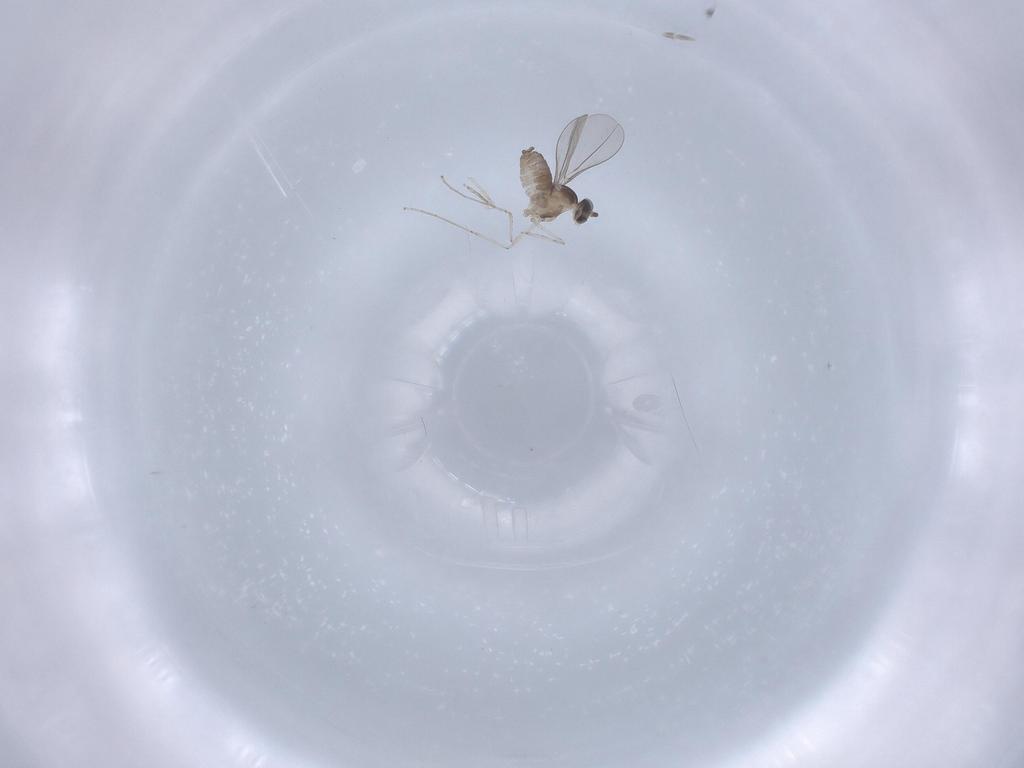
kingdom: Animalia
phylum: Arthropoda
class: Insecta
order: Diptera
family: Cecidomyiidae
